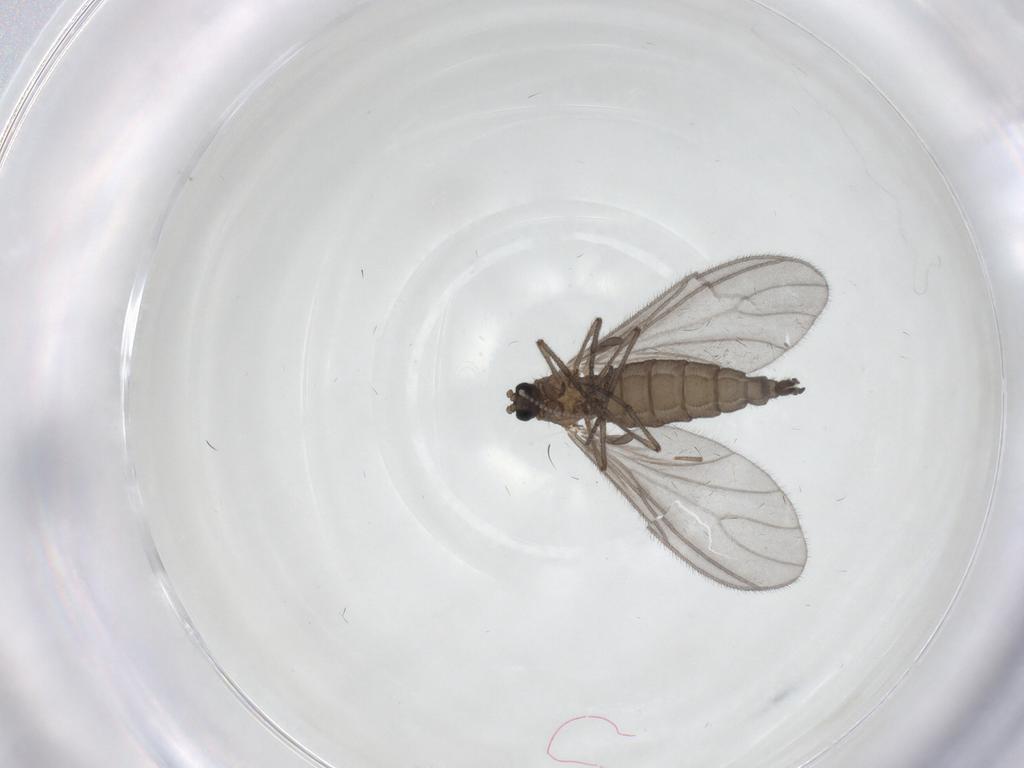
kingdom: Animalia
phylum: Arthropoda
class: Insecta
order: Diptera
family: Sciaridae
